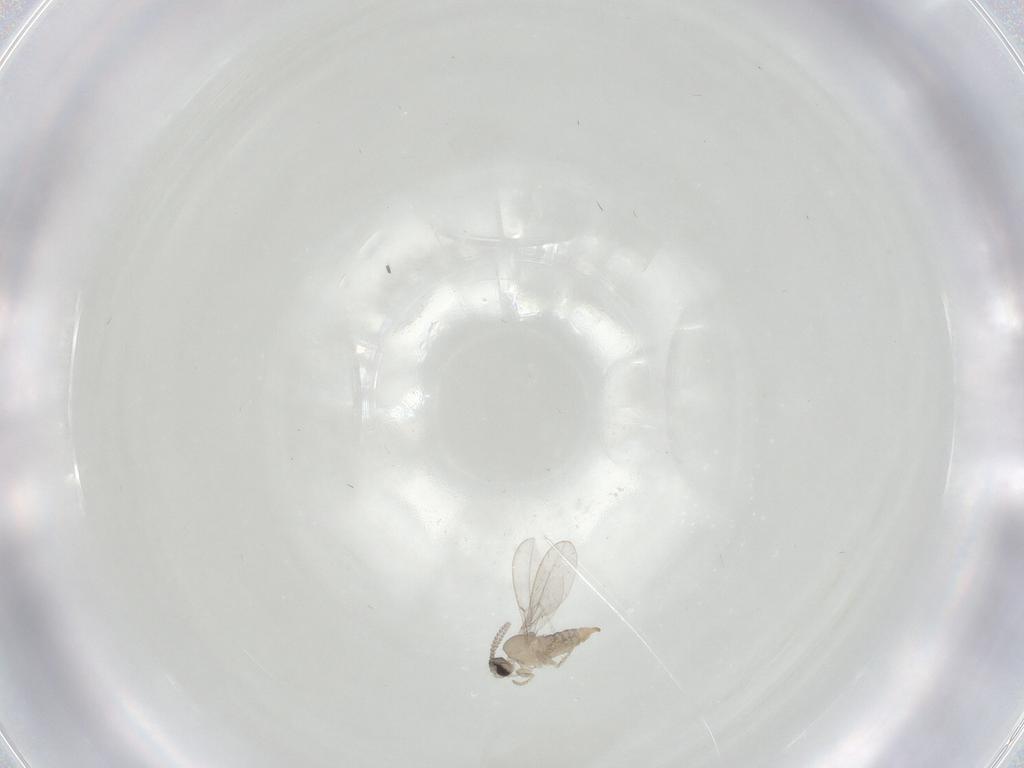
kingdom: Animalia
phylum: Arthropoda
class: Insecta
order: Diptera
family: Cecidomyiidae
